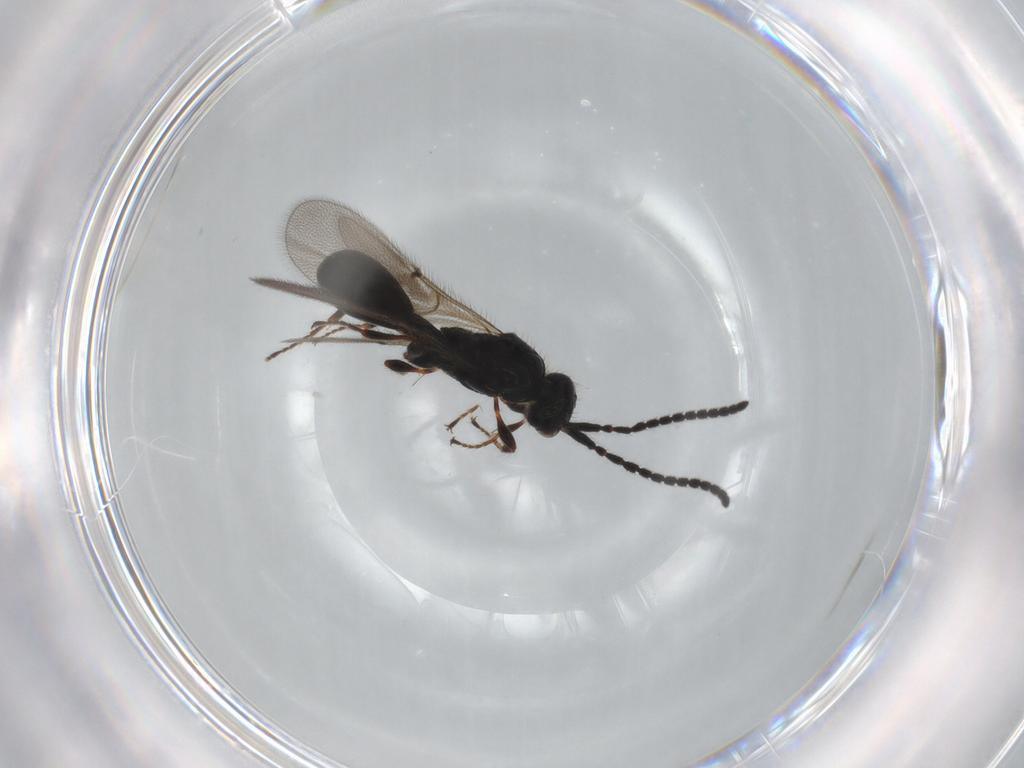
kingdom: Animalia
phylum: Arthropoda
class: Insecta
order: Hymenoptera
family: Diapriidae
